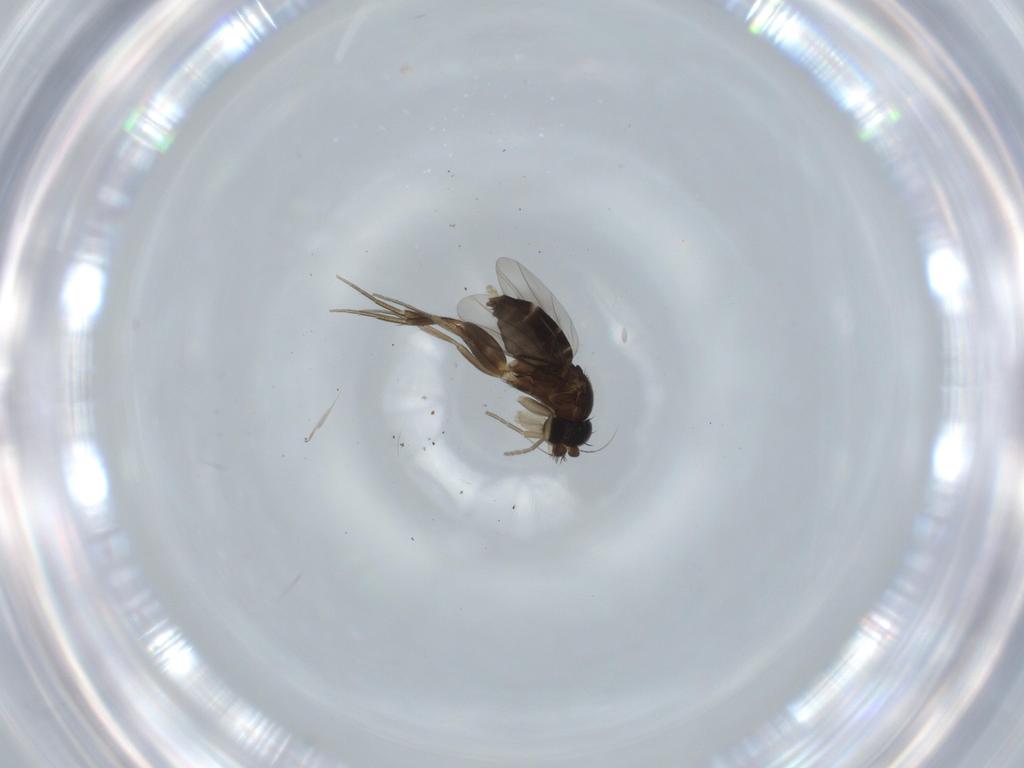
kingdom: Animalia
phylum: Arthropoda
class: Insecta
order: Diptera
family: Phoridae
